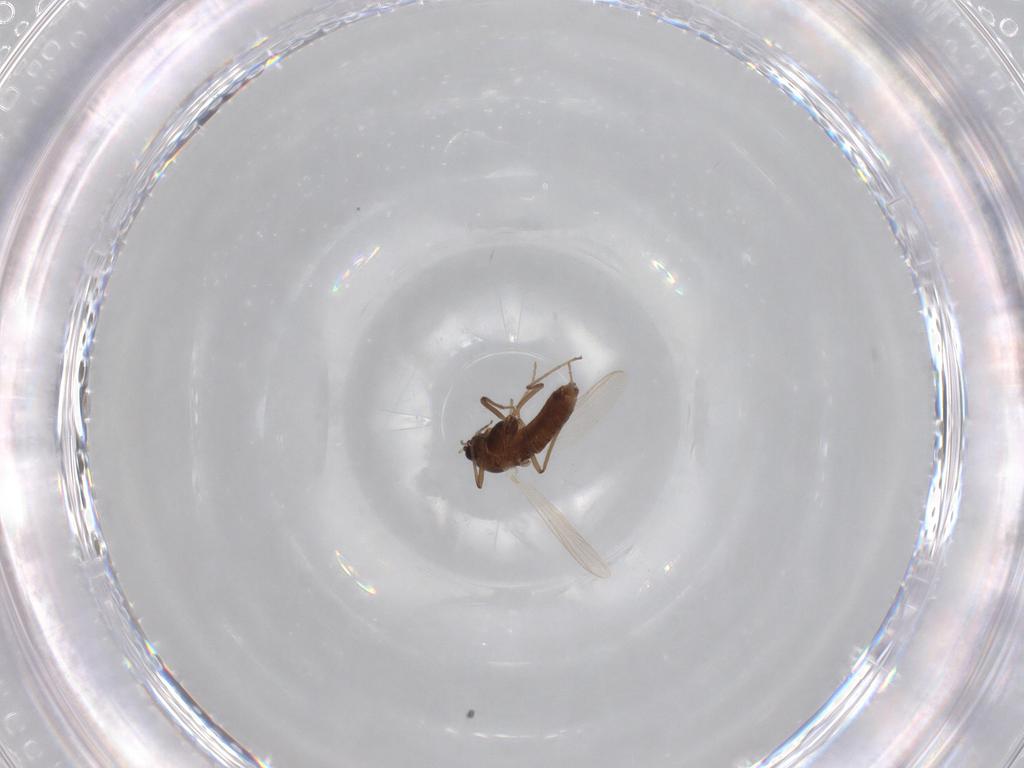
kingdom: Animalia
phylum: Arthropoda
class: Insecta
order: Diptera
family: Chironomidae
